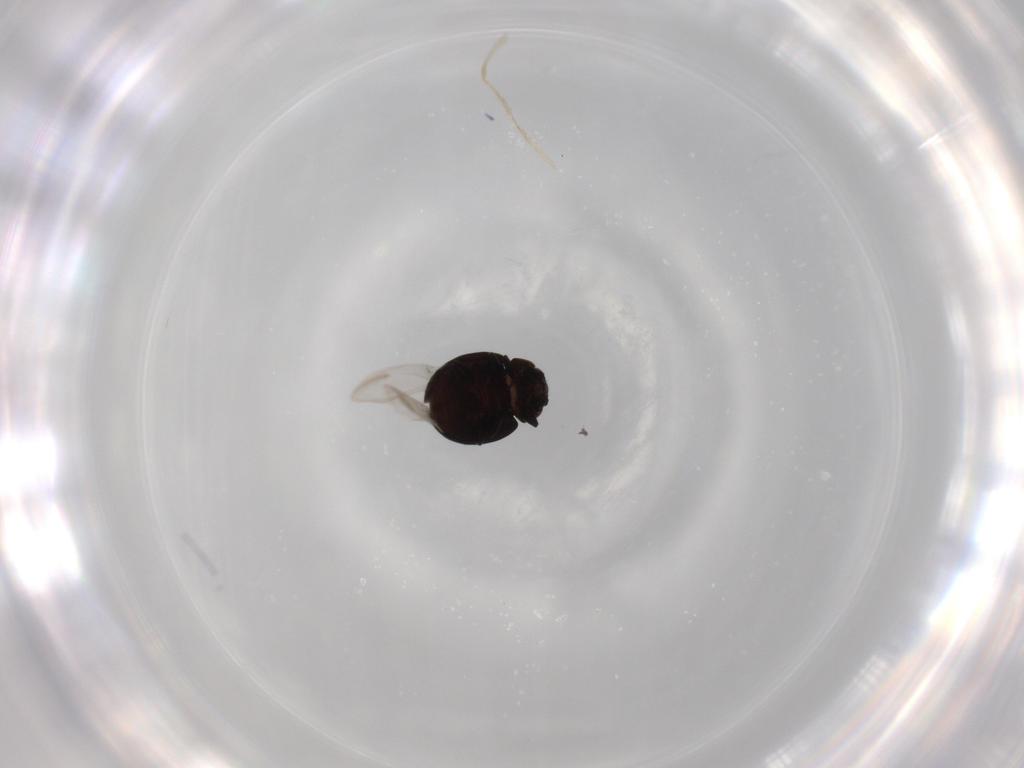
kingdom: Animalia
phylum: Arthropoda
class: Insecta
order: Coleoptera
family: Coccinellidae
